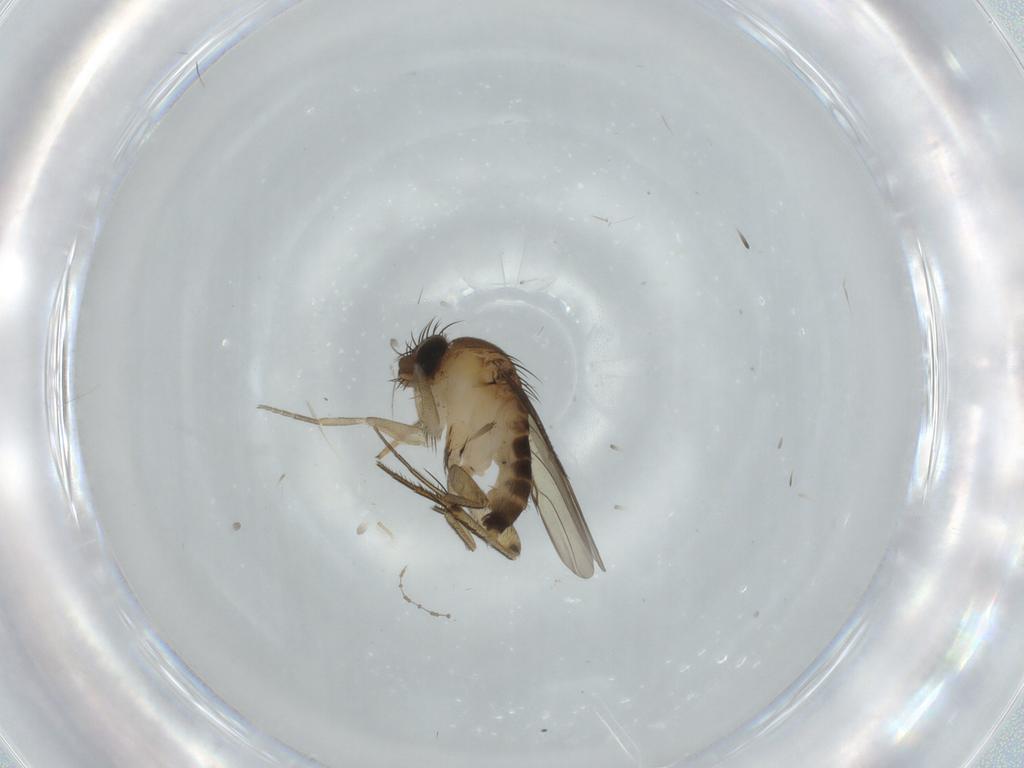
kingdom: Animalia
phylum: Arthropoda
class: Insecta
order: Diptera
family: Phoridae
